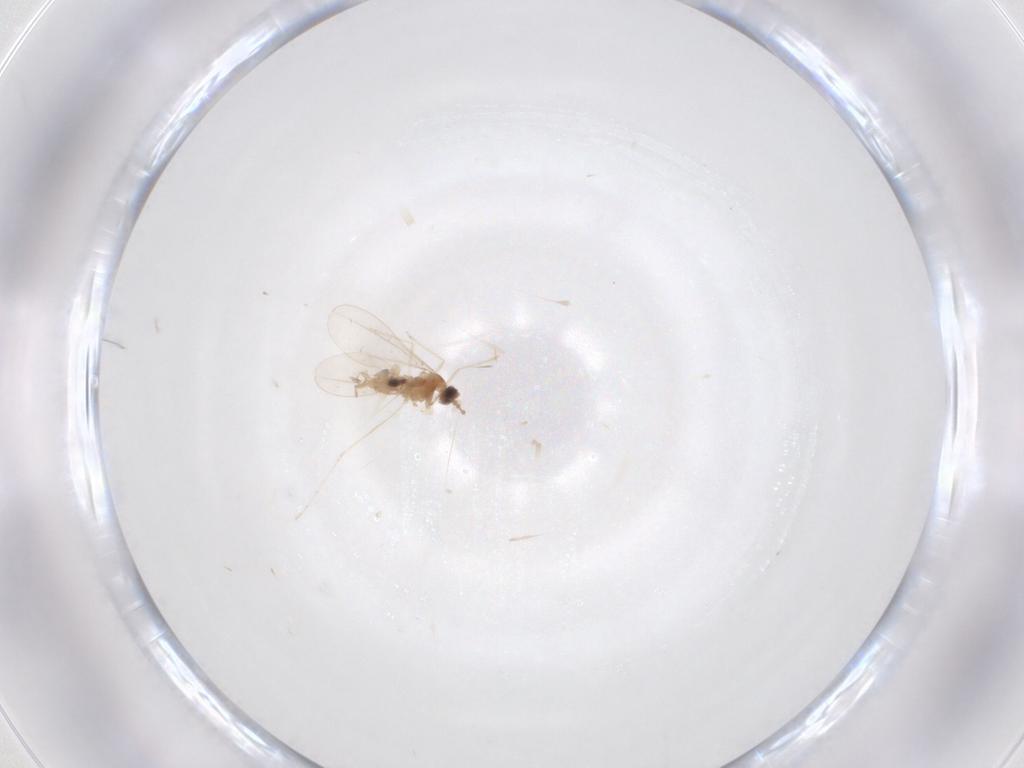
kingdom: Animalia
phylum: Arthropoda
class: Insecta
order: Diptera
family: Cecidomyiidae
